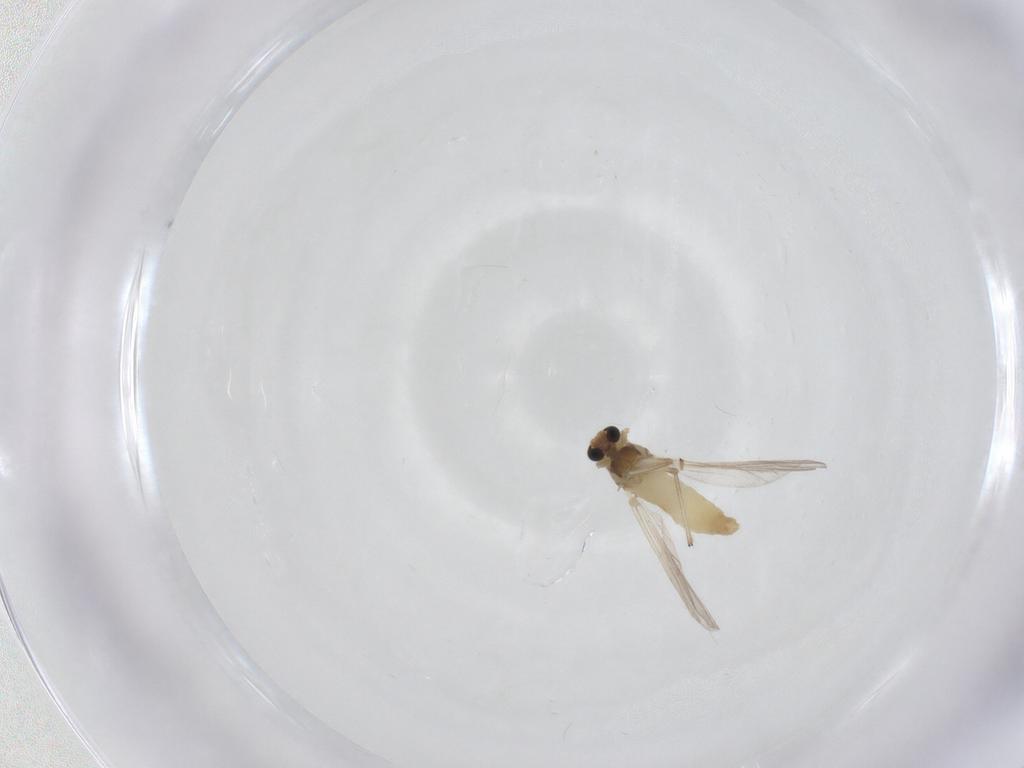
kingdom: Animalia
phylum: Arthropoda
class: Insecta
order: Diptera
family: Chironomidae
